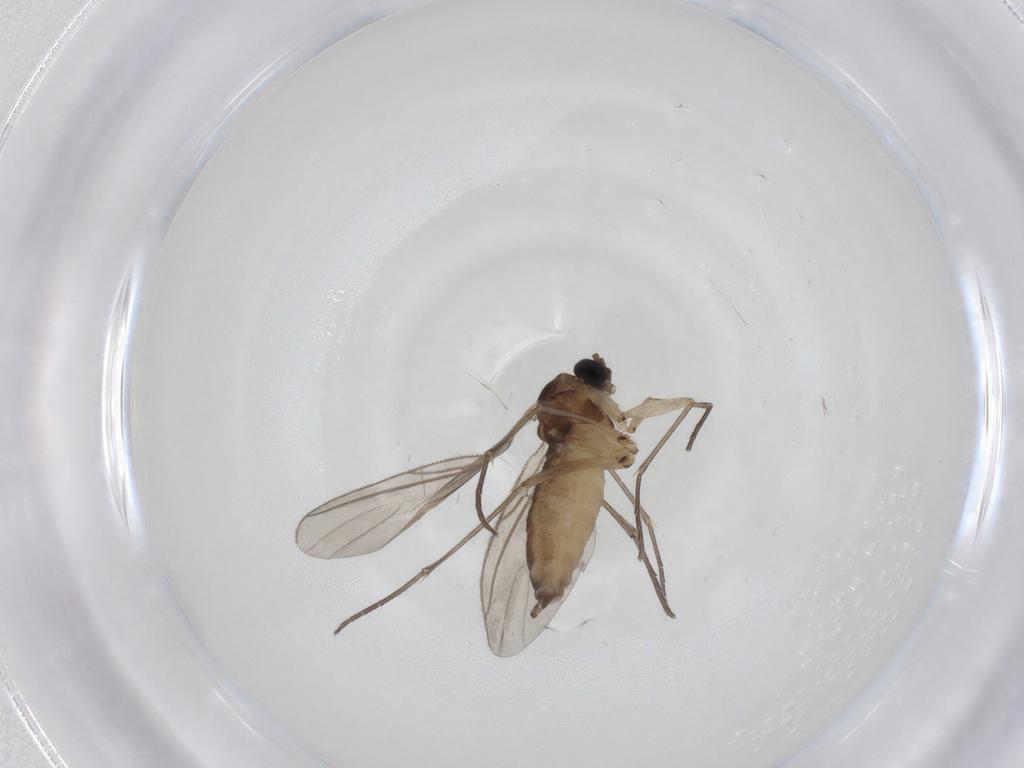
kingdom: Animalia
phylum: Arthropoda
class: Insecta
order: Diptera
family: Sciaridae
